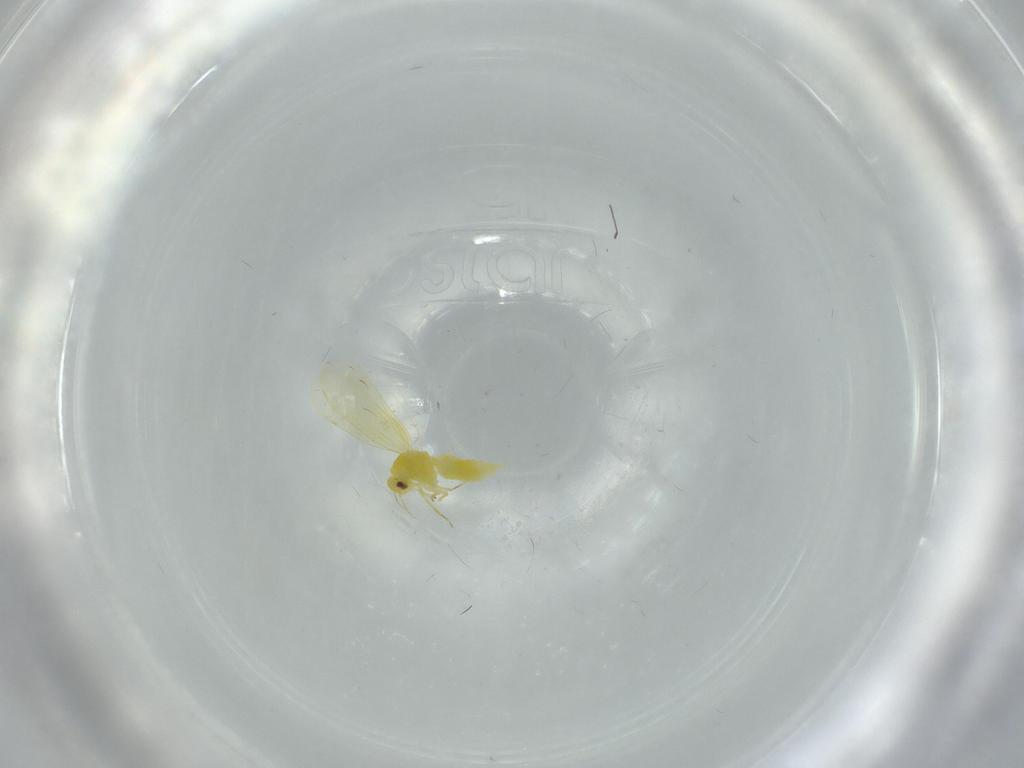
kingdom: Animalia
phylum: Arthropoda
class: Insecta
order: Hemiptera
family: Aleyrodidae
